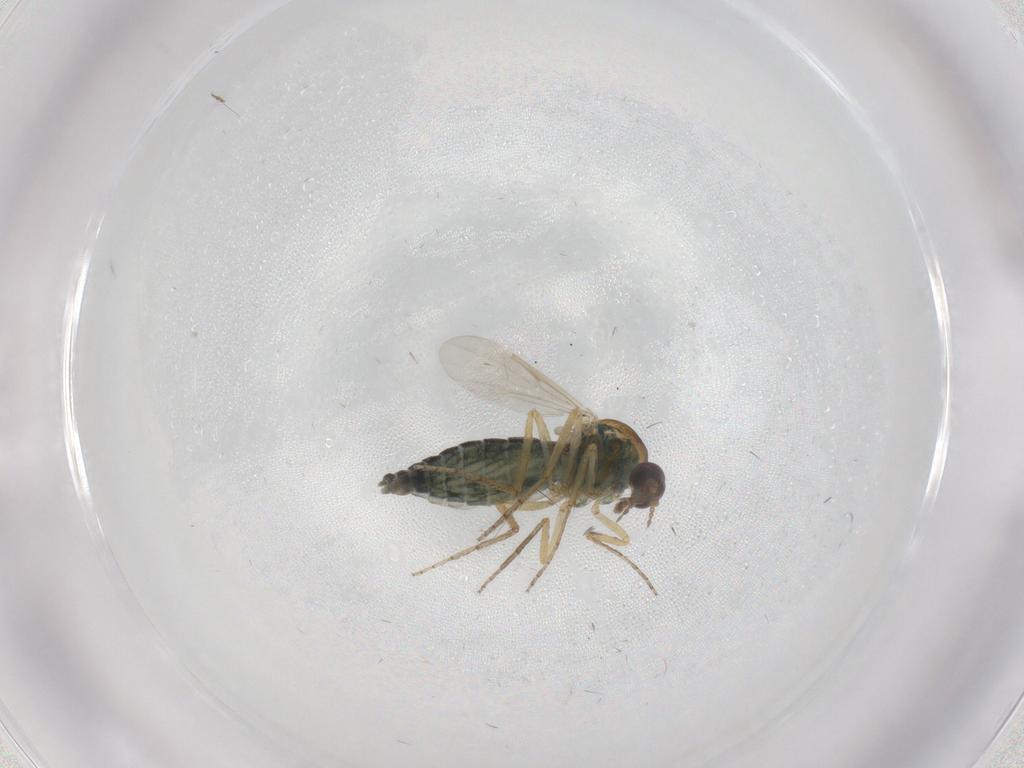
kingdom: Animalia
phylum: Arthropoda
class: Insecta
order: Diptera
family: Ceratopogonidae
